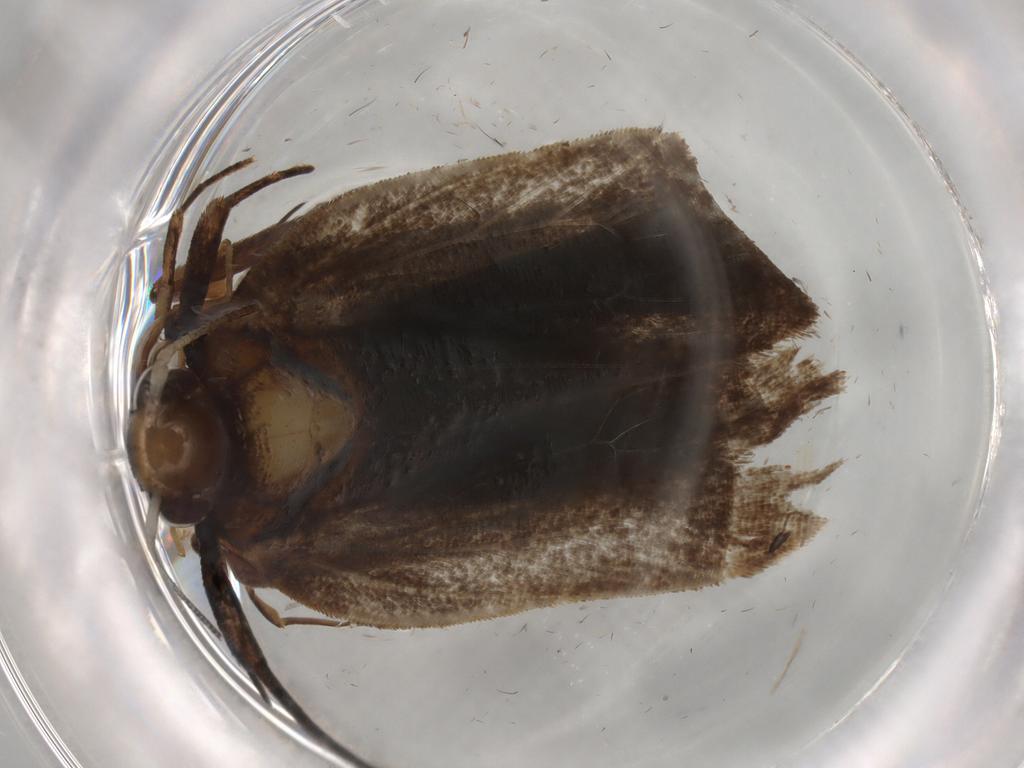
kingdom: Animalia
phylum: Arthropoda
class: Insecta
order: Lepidoptera
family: Gelechiidae
